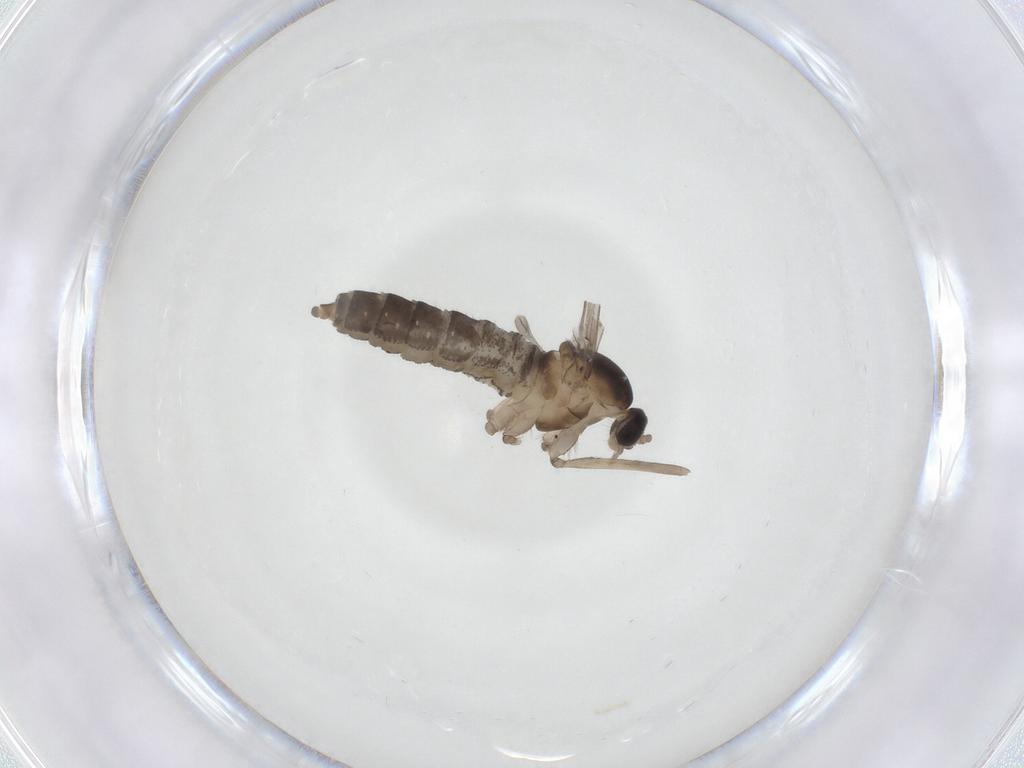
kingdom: Animalia
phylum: Arthropoda
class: Insecta
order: Diptera
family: Cecidomyiidae
